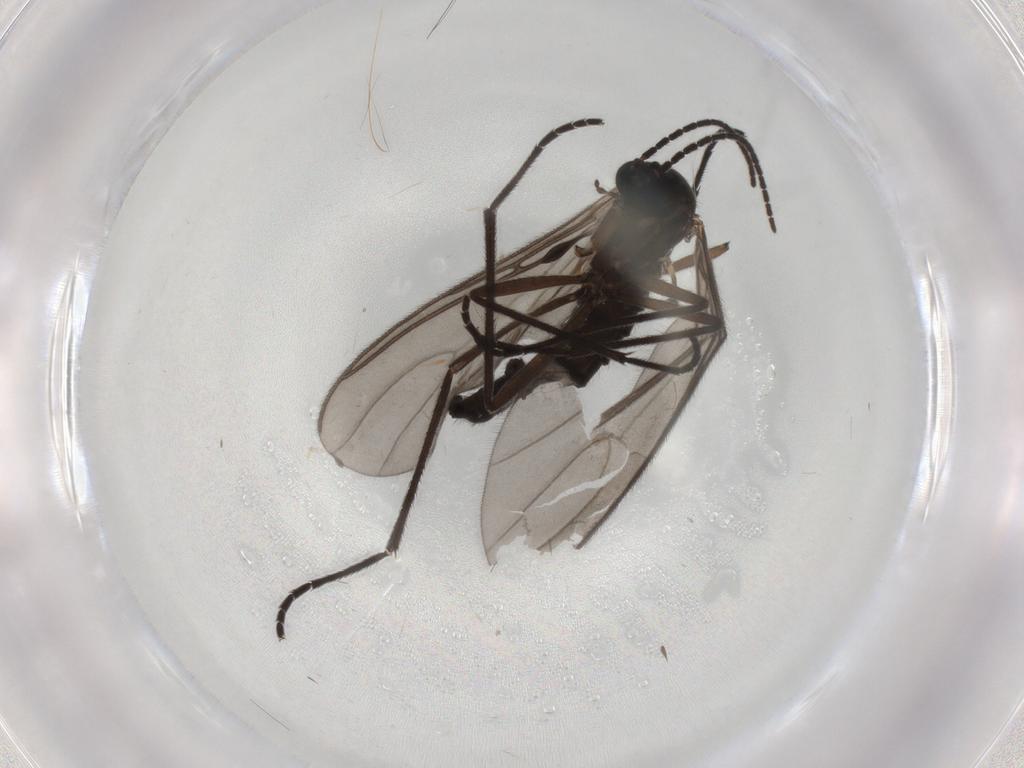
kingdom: Animalia
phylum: Arthropoda
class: Insecta
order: Diptera
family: Sciaridae
